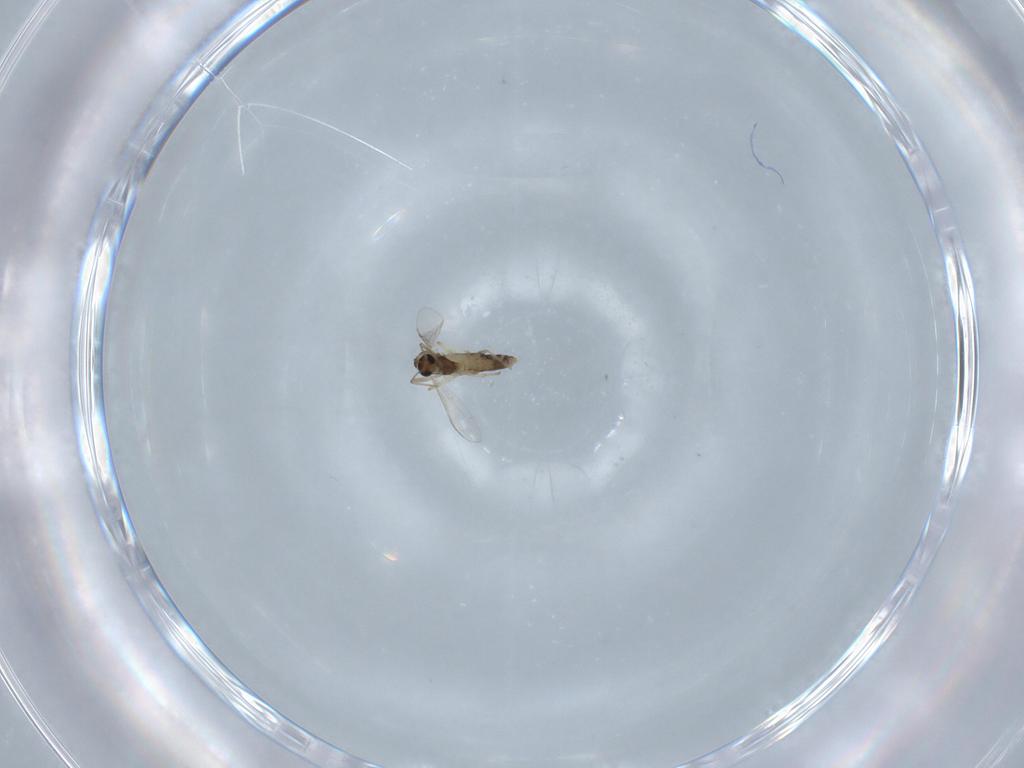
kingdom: Animalia
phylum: Arthropoda
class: Insecta
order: Diptera
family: Chironomidae
